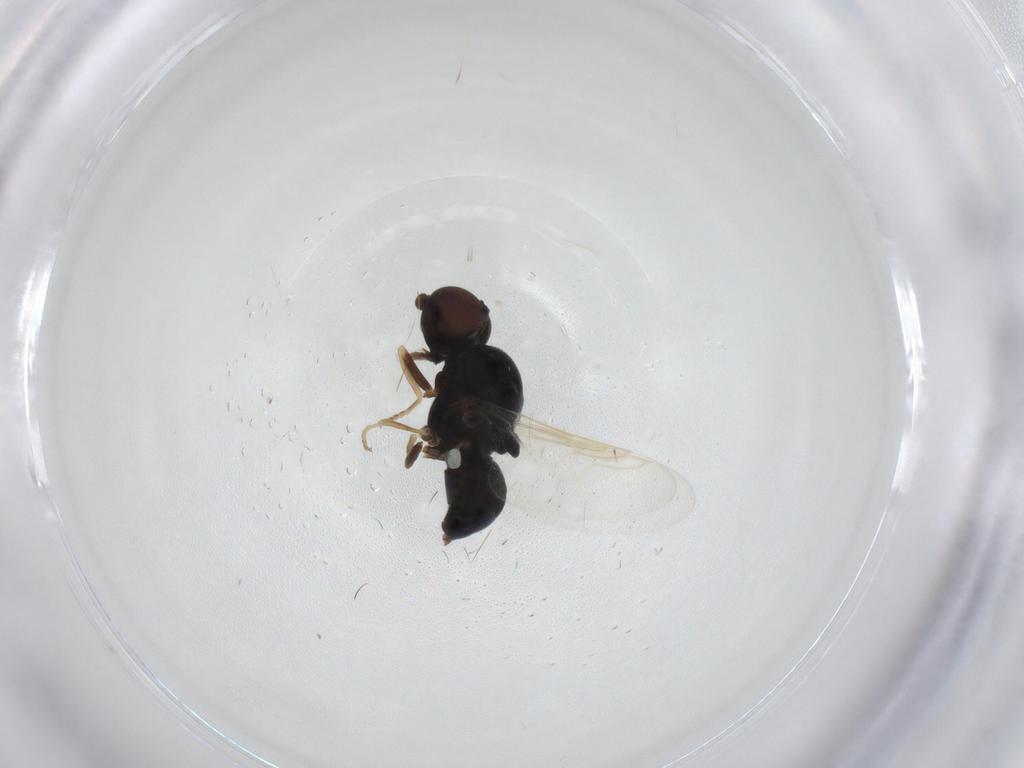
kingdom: Animalia
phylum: Arthropoda
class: Insecta
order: Diptera
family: Stratiomyidae
